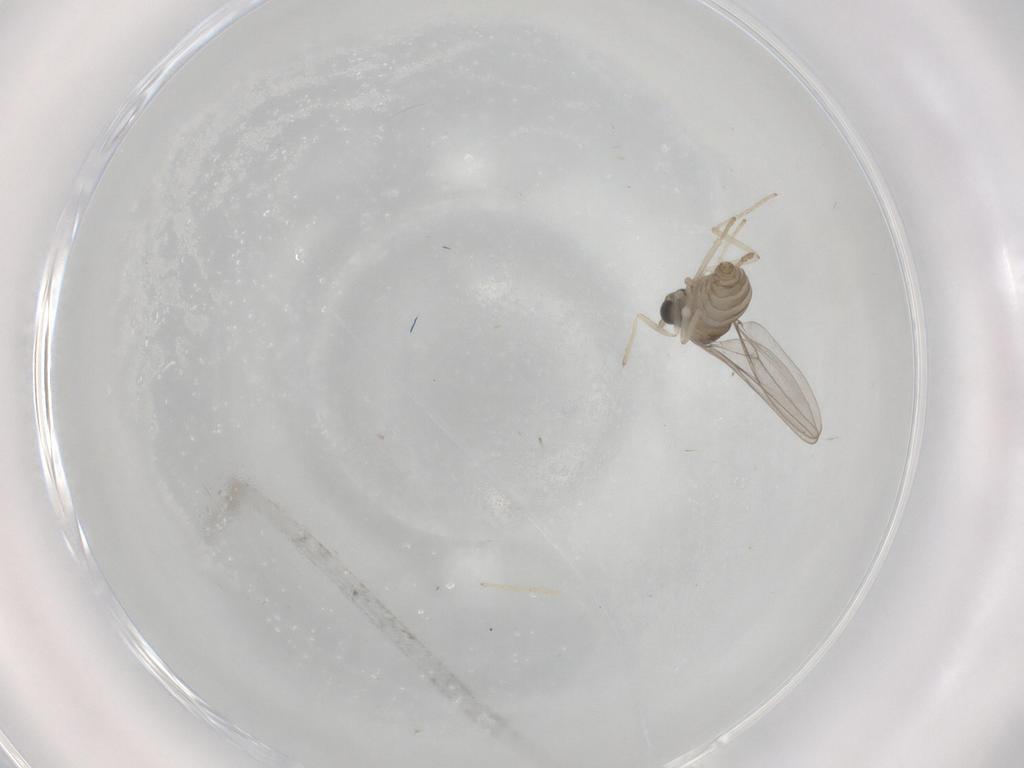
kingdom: Animalia
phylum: Arthropoda
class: Insecta
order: Diptera
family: Cecidomyiidae
